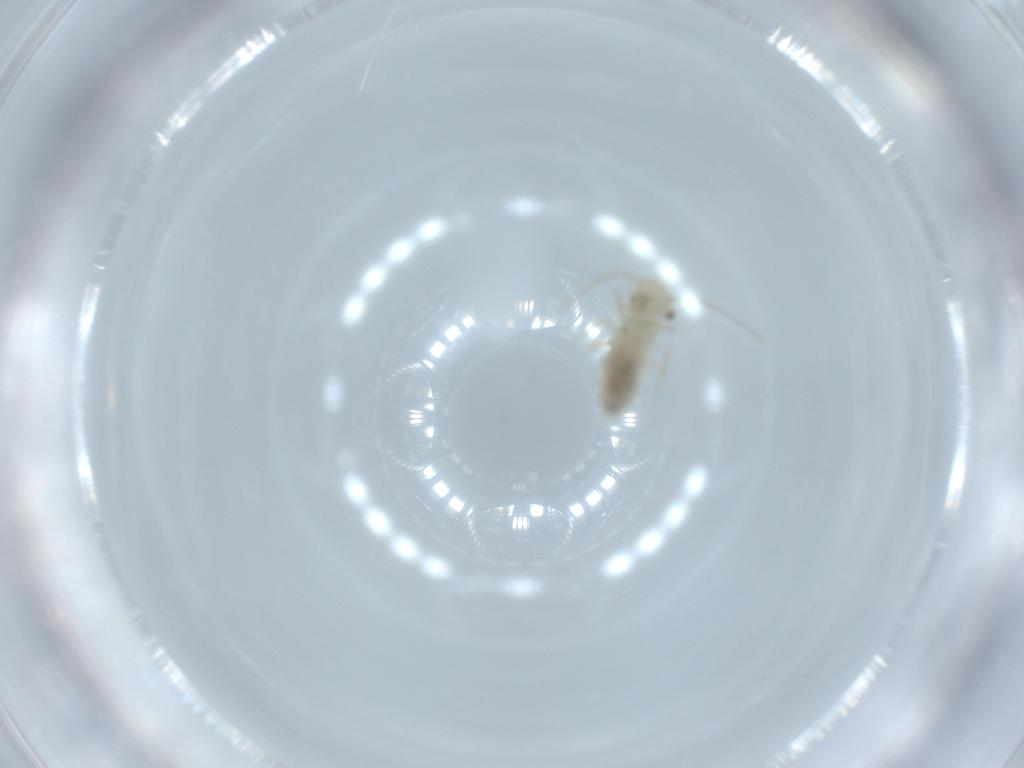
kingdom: Animalia
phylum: Arthropoda
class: Insecta
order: Psocodea
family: Caeciliusidae
